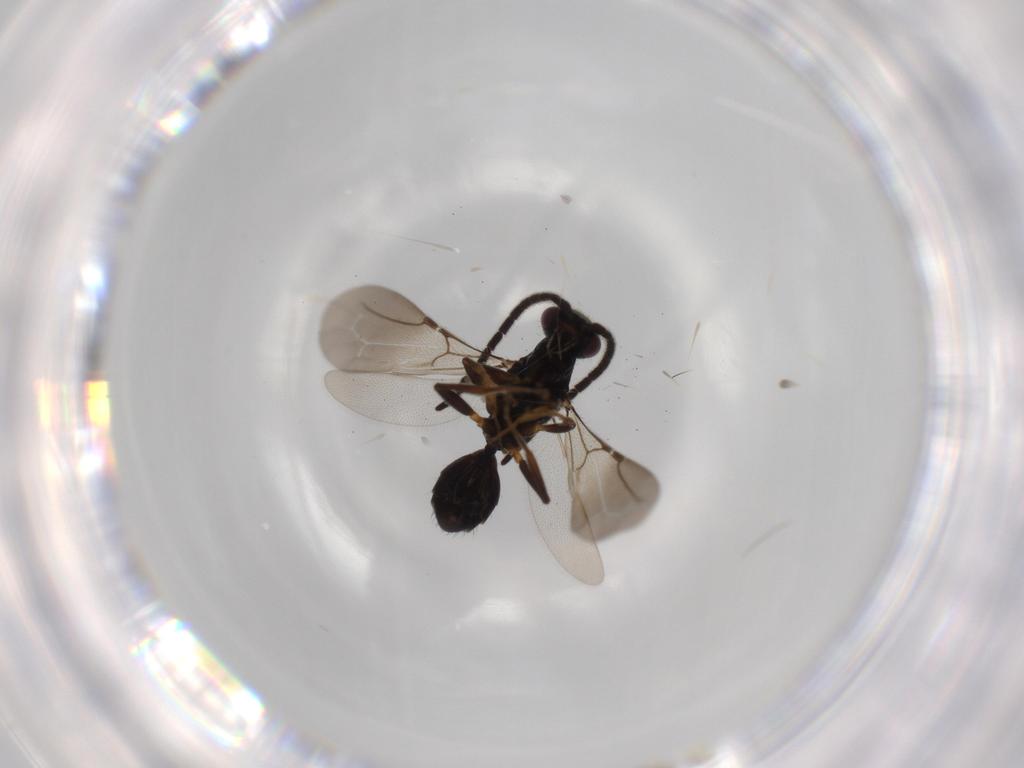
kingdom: Animalia
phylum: Arthropoda
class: Insecta
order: Hymenoptera
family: Bethylidae
